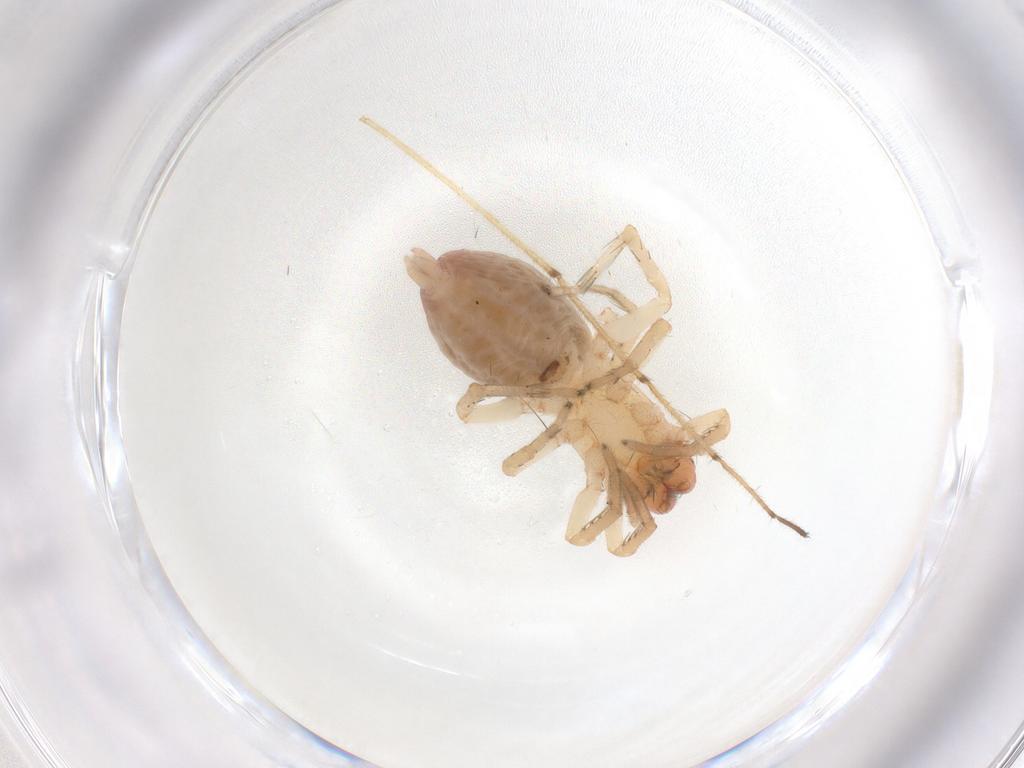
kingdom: Animalia
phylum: Arthropoda
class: Arachnida
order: Araneae
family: Clubionidae
